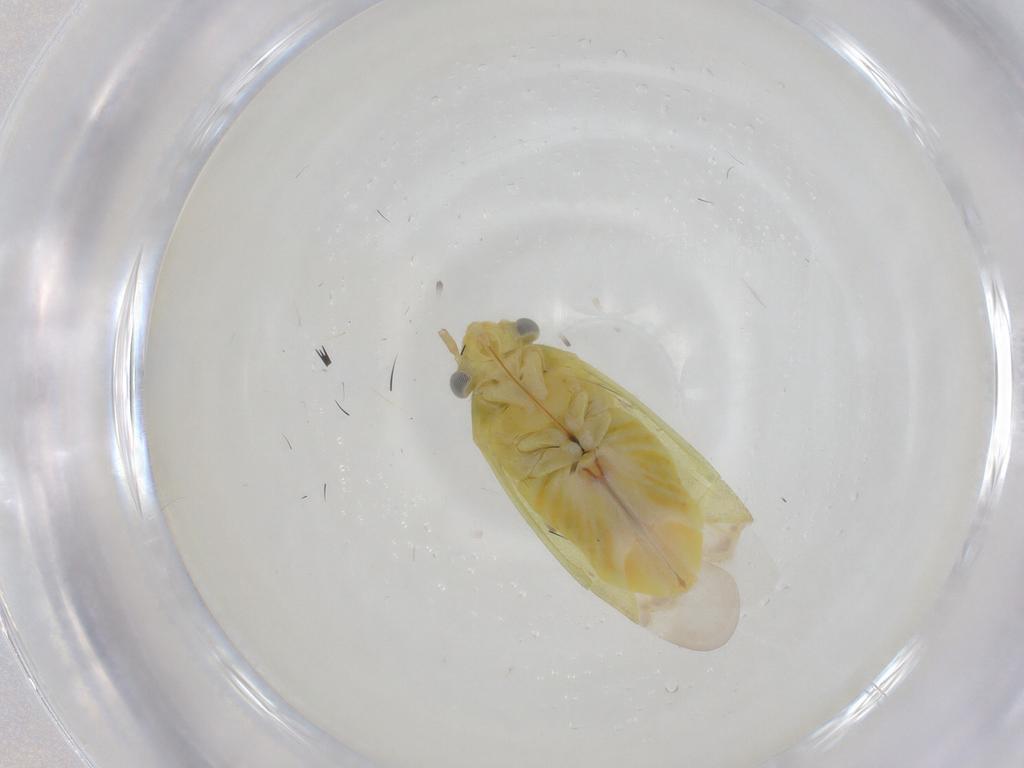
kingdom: Animalia
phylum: Arthropoda
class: Insecta
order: Hemiptera
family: Miridae
